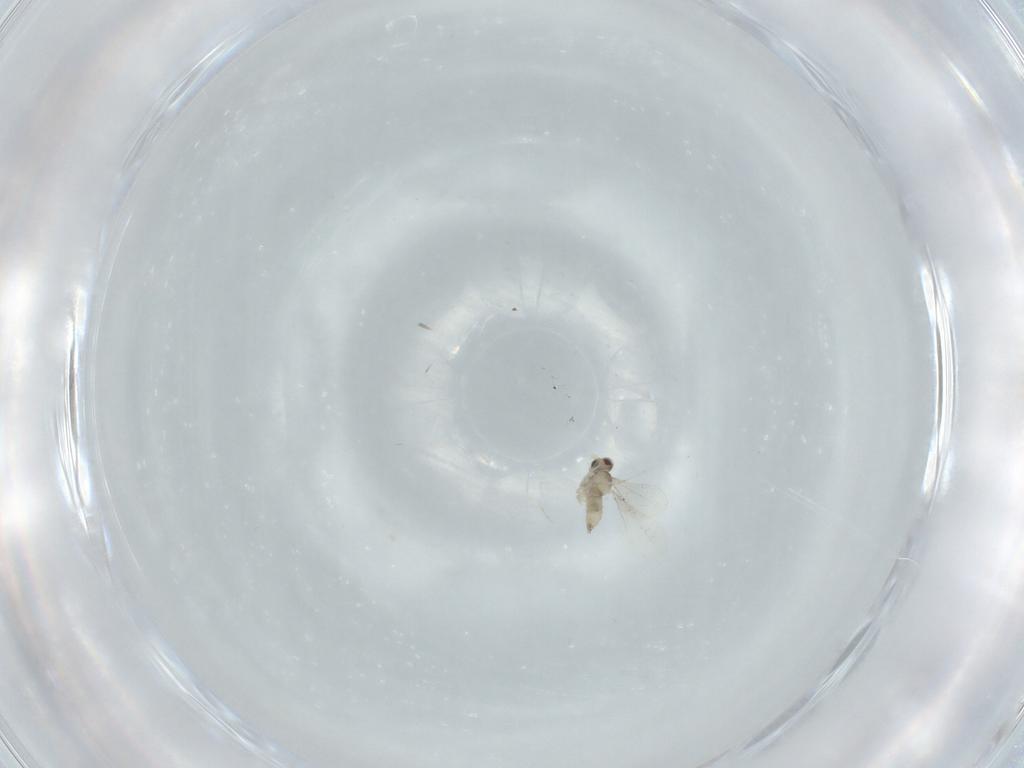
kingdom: Animalia
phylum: Arthropoda
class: Insecta
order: Diptera
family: Cecidomyiidae
